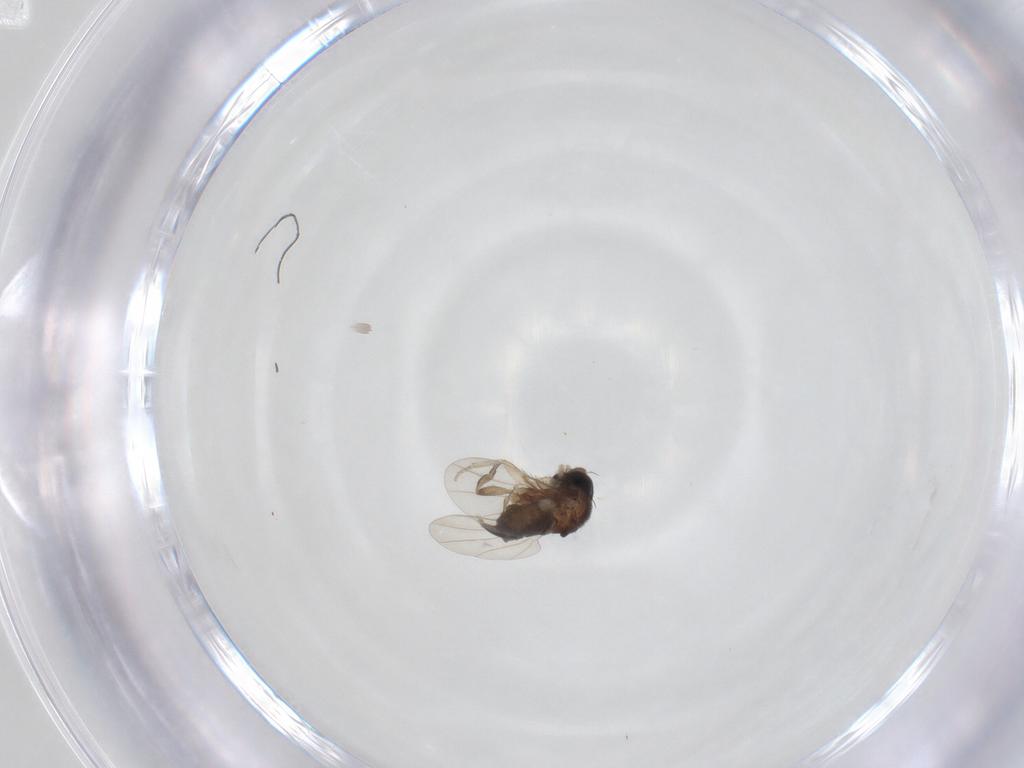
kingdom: Animalia
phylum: Arthropoda
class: Insecta
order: Diptera
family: Phoridae
